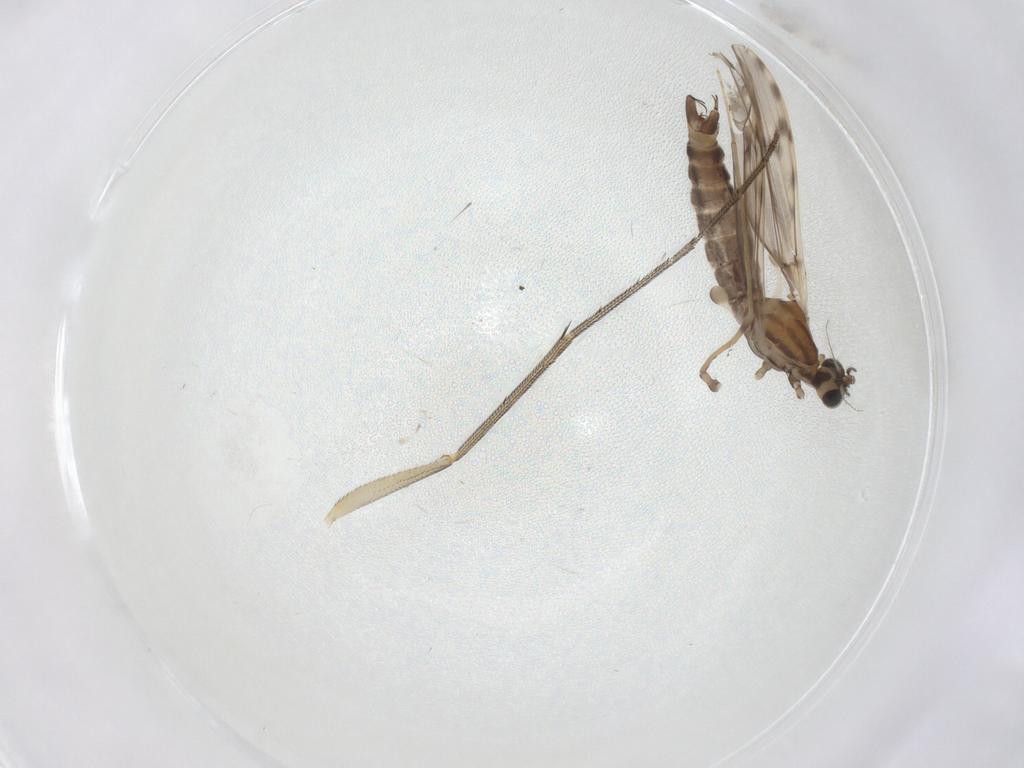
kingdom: Animalia
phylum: Arthropoda
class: Insecta
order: Diptera
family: Limoniidae
